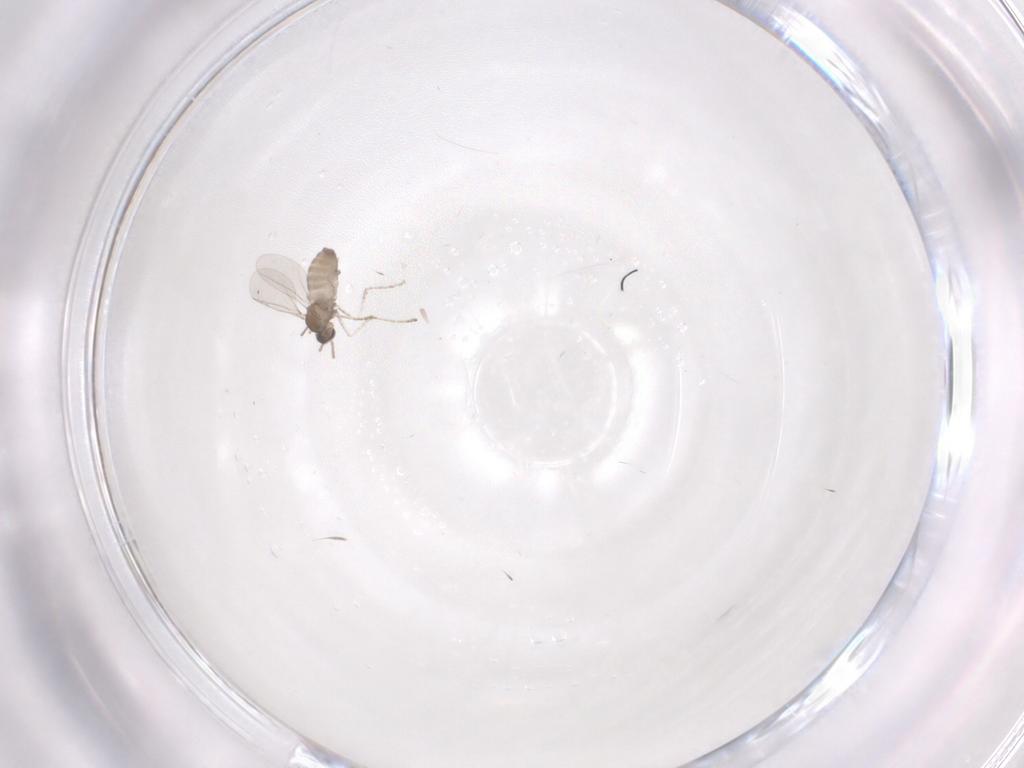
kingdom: Animalia
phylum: Arthropoda
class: Insecta
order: Diptera
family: Cecidomyiidae
